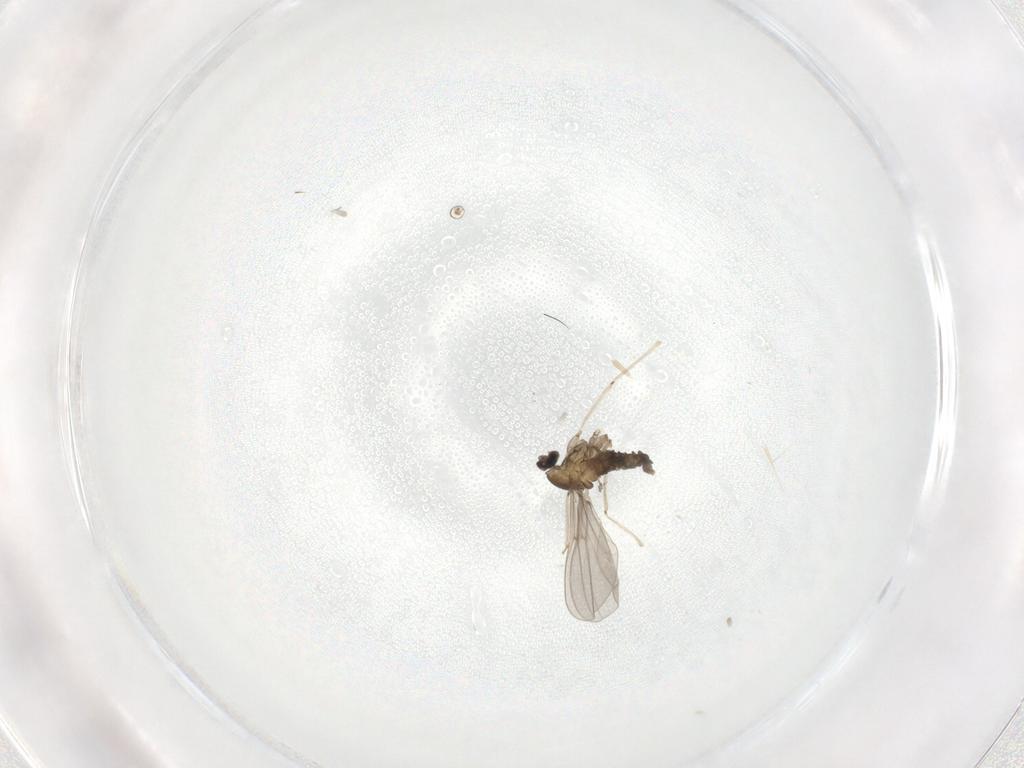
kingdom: Animalia
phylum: Arthropoda
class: Insecta
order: Diptera
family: Cecidomyiidae
